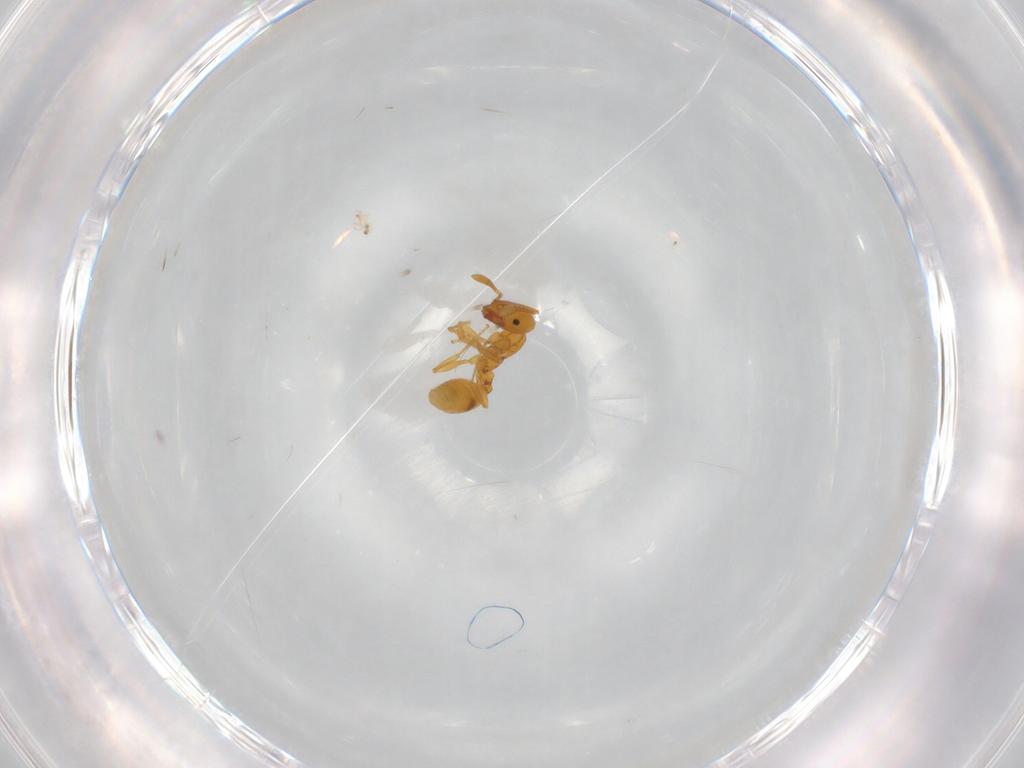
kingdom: Animalia
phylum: Arthropoda
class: Insecta
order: Hymenoptera
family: Formicidae
